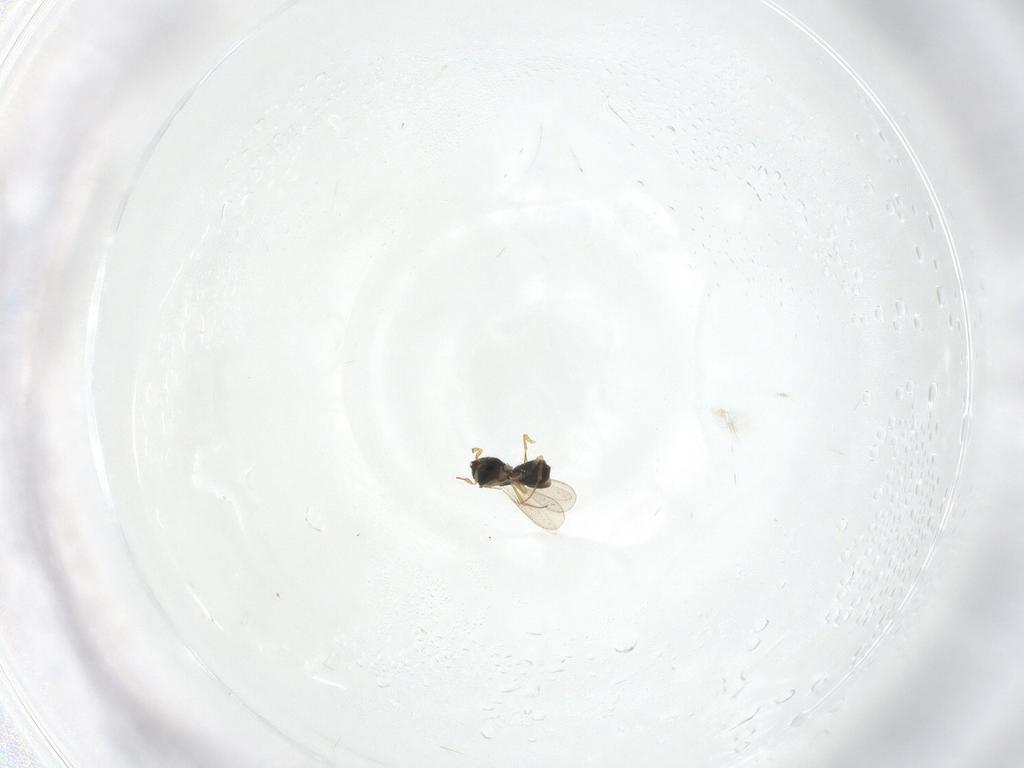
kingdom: Animalia
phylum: Arthropoda
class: Insecta
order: Hymenoptera
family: Scelionidae
